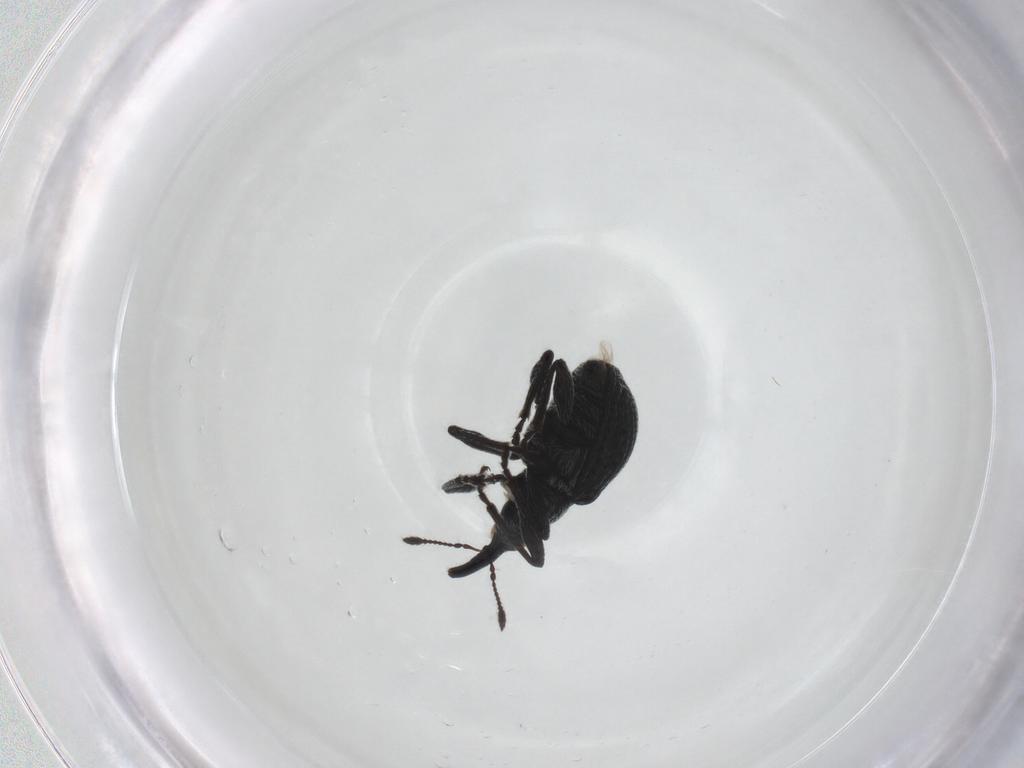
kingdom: Animalia
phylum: Arthropoda
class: Insecta
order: Coleoptera
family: Brentidae
